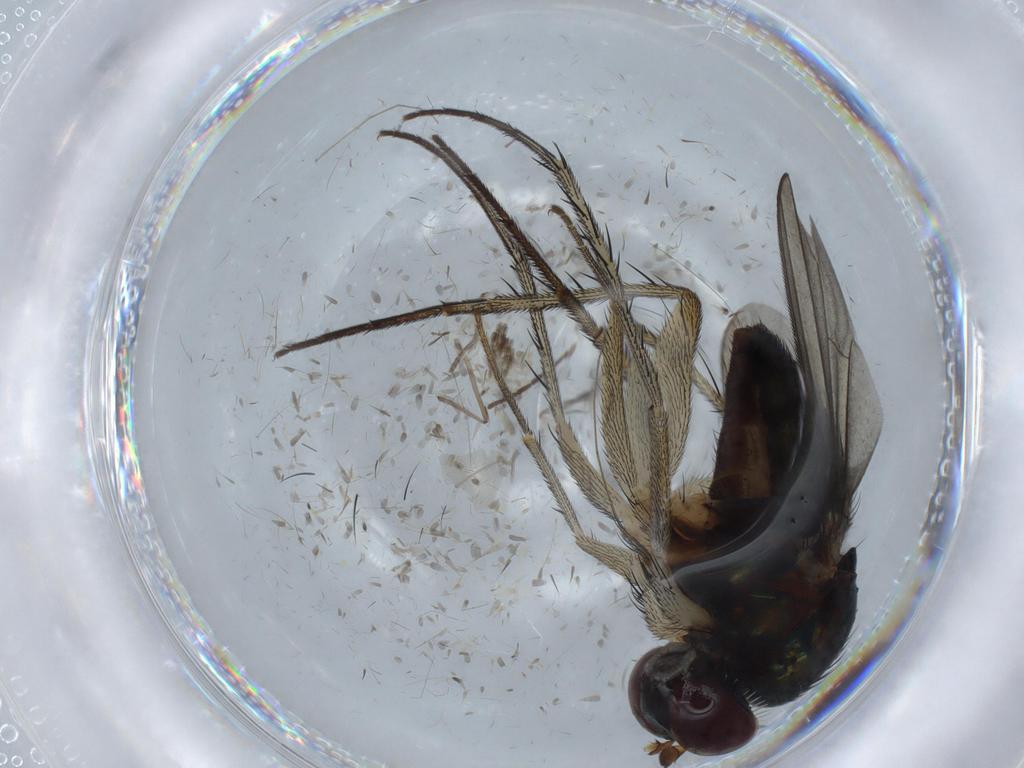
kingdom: Animalia
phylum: Arthropoda
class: Insecta
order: Diptera
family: Dolichopodidae
